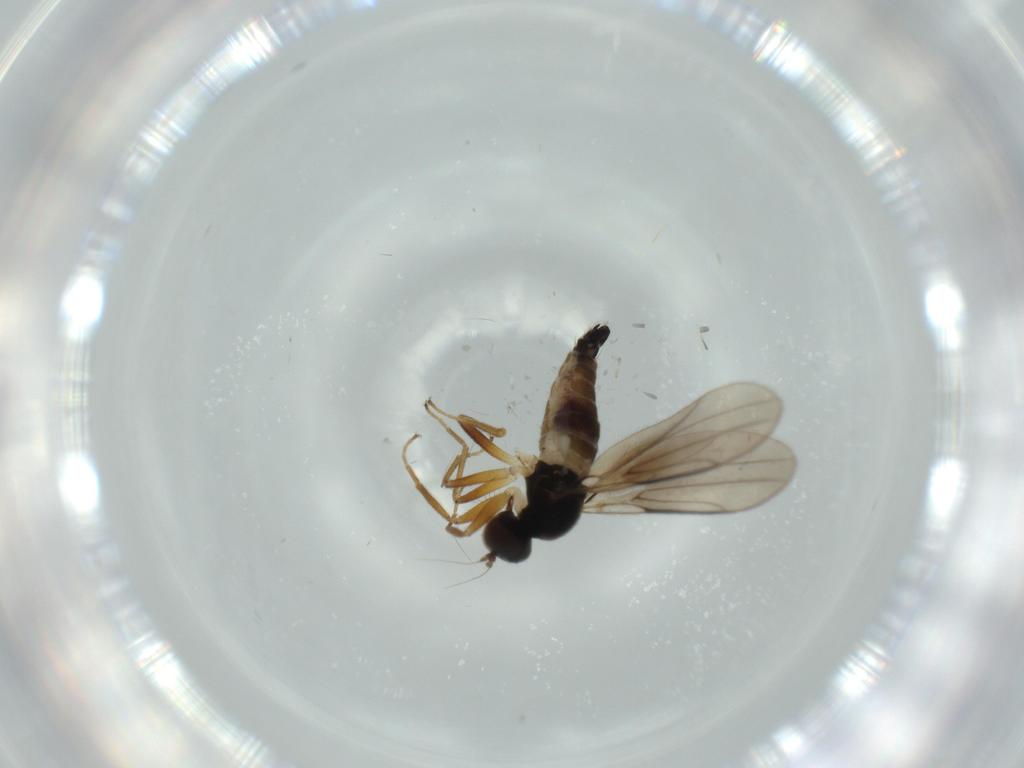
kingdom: Animalia
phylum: Arthropoda
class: Insecta
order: Diptera
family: Hybotidae
